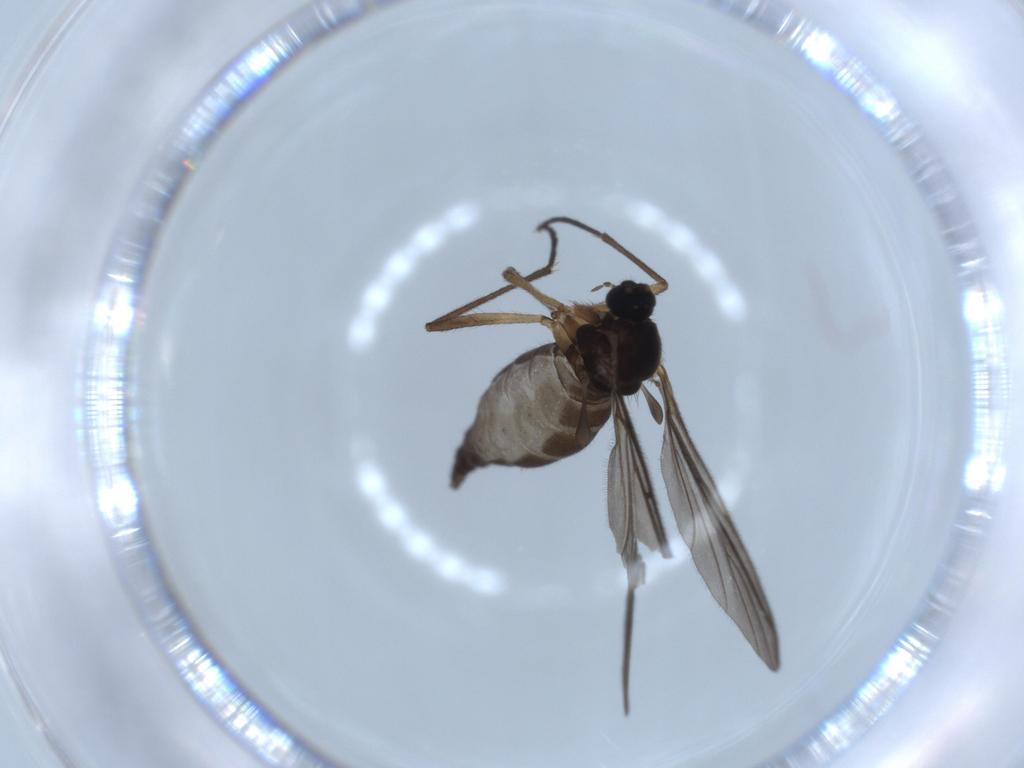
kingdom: Animalia
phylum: Arthropoda
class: Insecta
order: Diptera
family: Sciaridae
